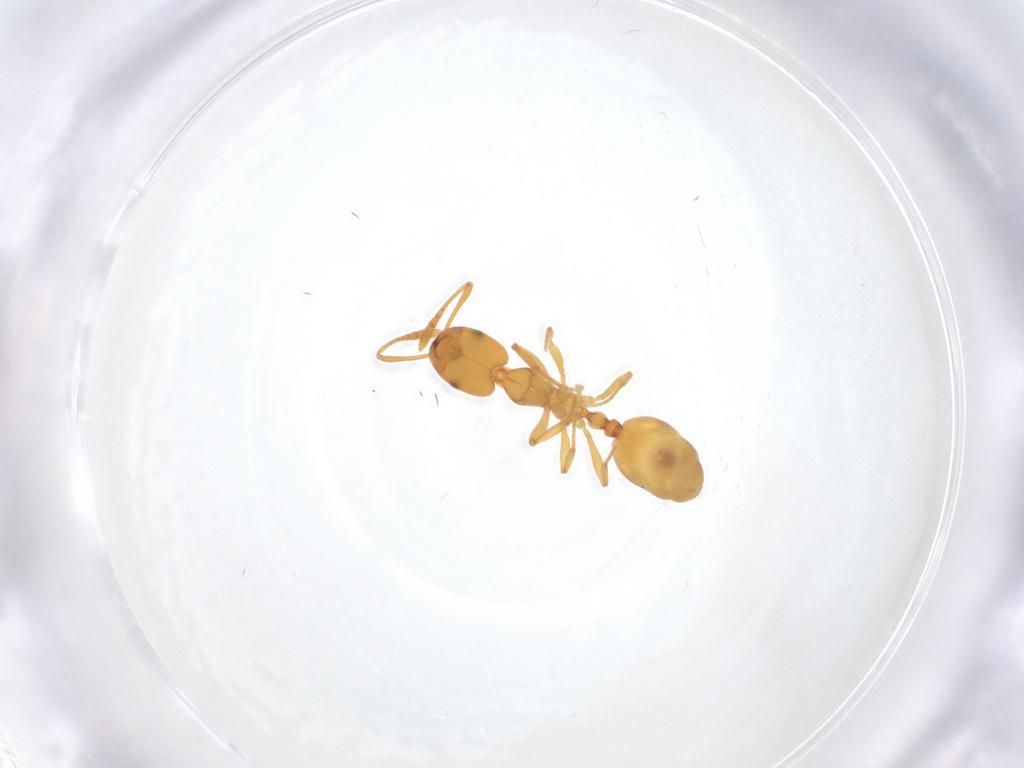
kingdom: Animalia
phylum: Arthropoda
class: Insecta
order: Hymenoptera
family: Formicidae
